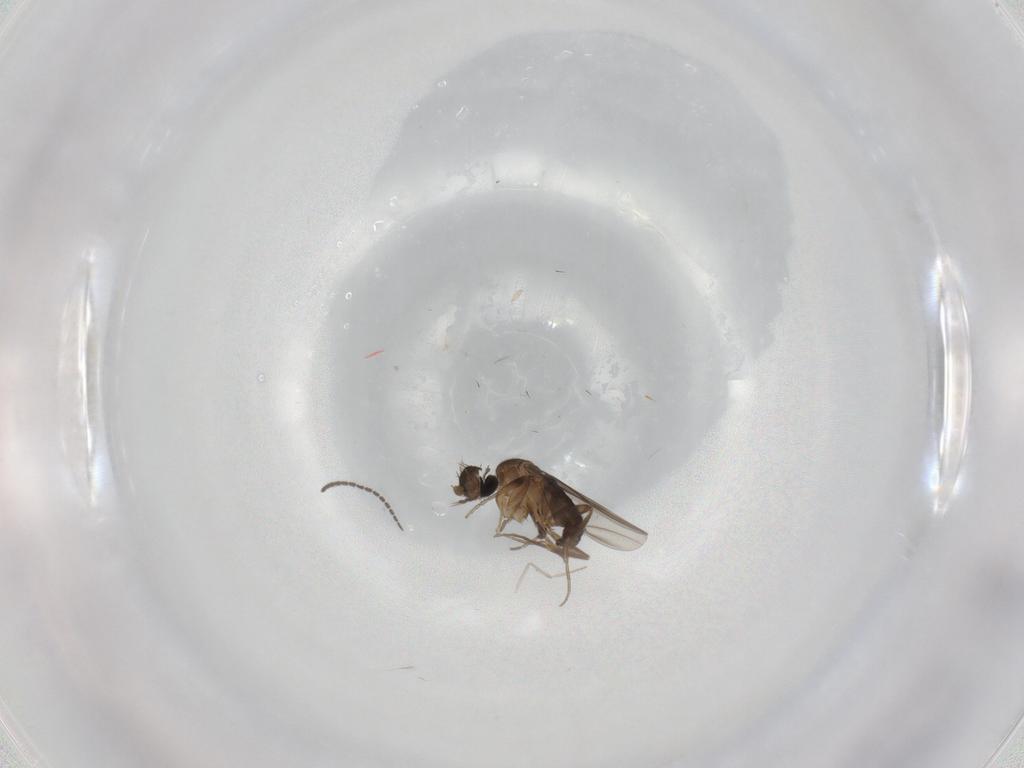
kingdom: Animalia
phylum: Arthropoda
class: Insecta
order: Diptera
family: Phoridae
